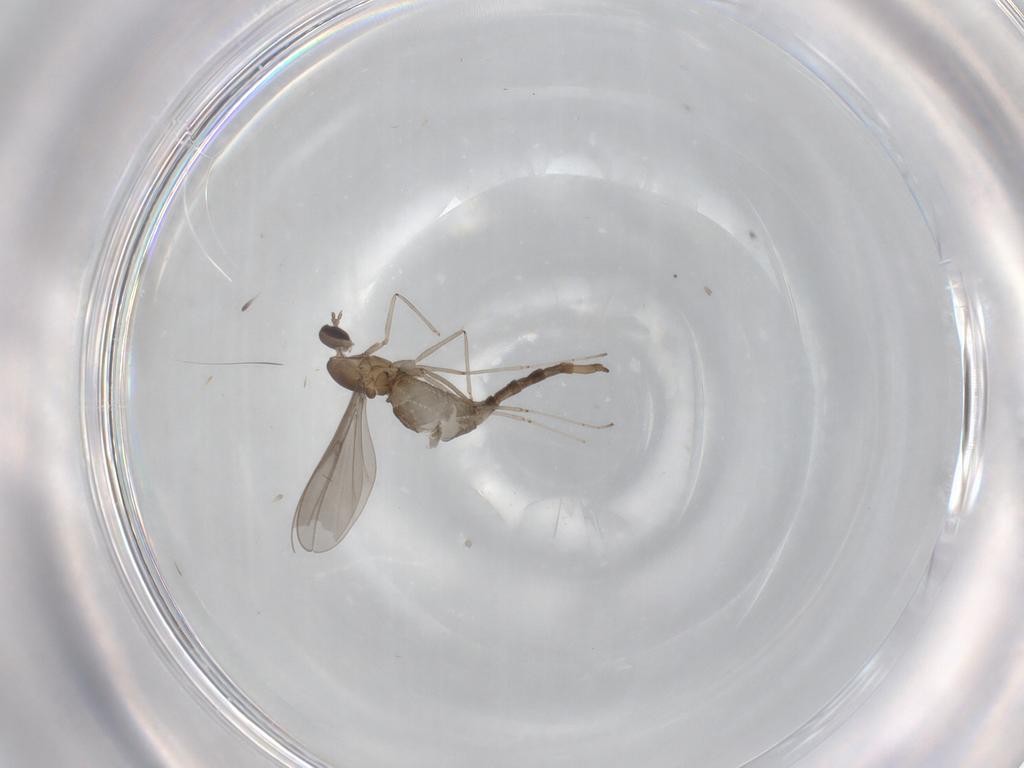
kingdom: Animalia
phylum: Arthropoda
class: Insecta
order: Diptera
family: Cecidomyiidae
